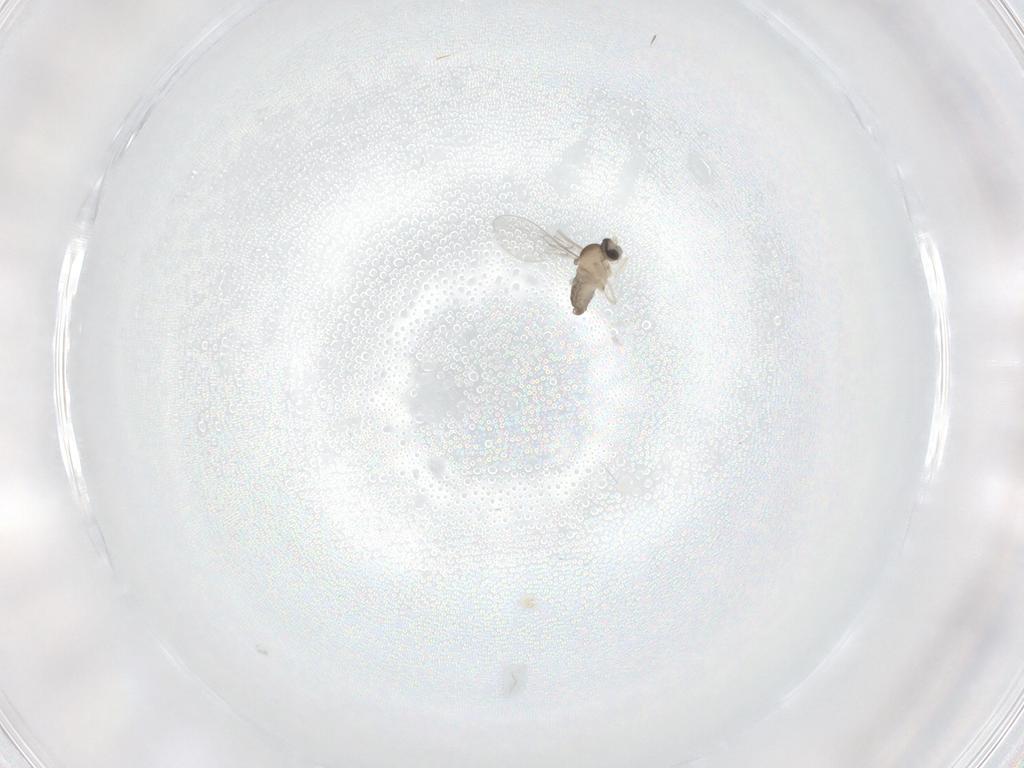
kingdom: Animalia
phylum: Arthropoda
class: Insecta
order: Diptera
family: Cecidomyiidae
